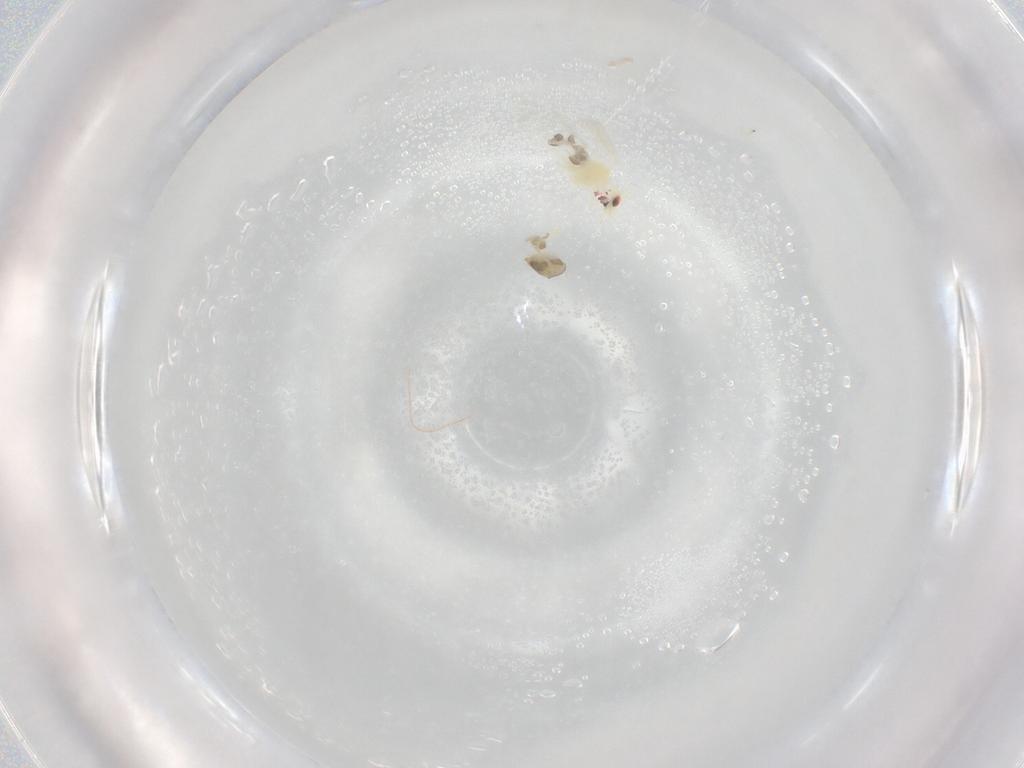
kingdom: Animalia
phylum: Arthropoda
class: Insecta
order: Hemiptera
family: Aleyrodidae
